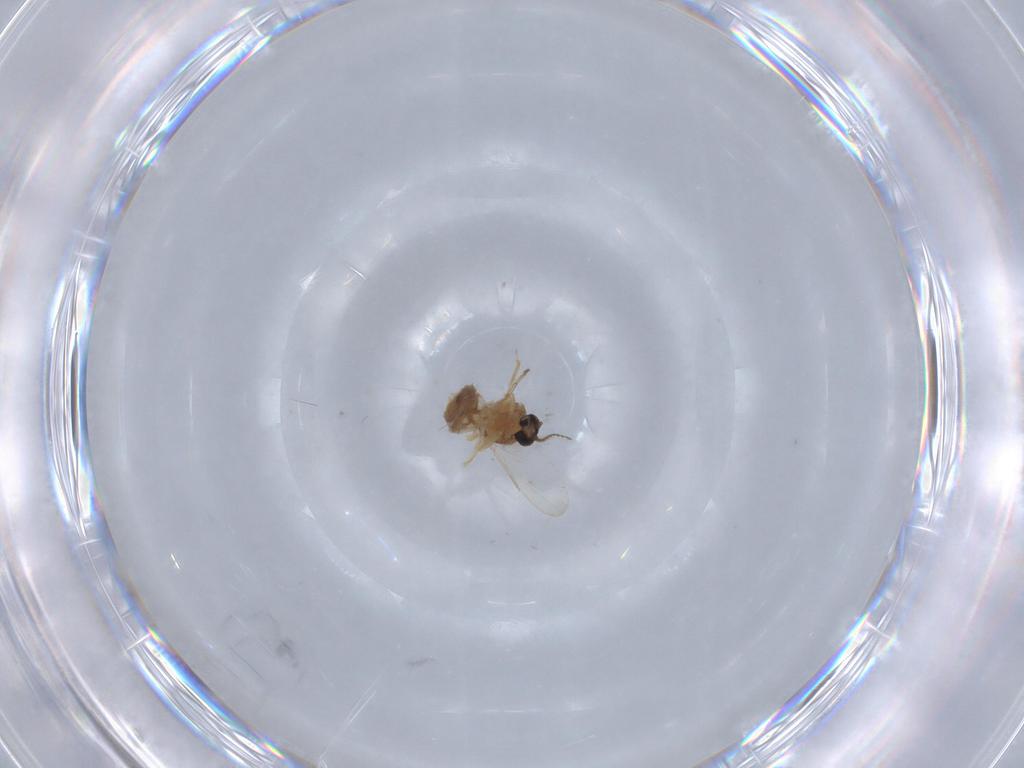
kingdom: Animalia
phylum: Arthropoda
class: Insecta
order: Diptera
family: Ceratopogonidae
